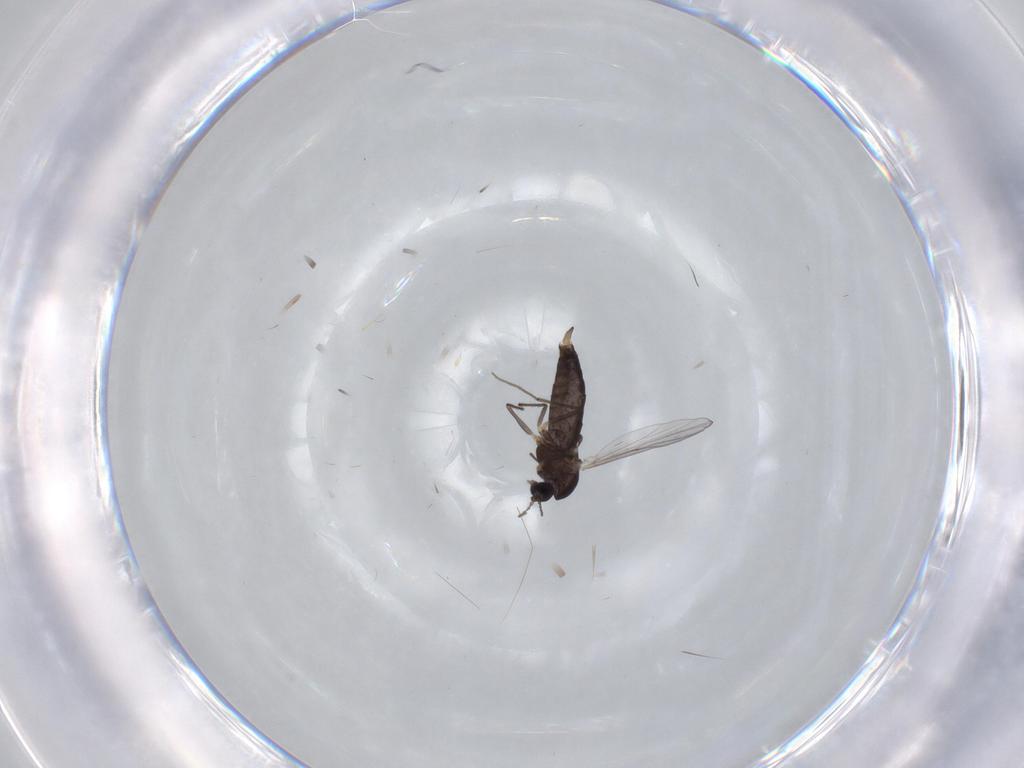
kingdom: Animalia
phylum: Arthropoda
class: Insecta
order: Diptera
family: Chironomidae
